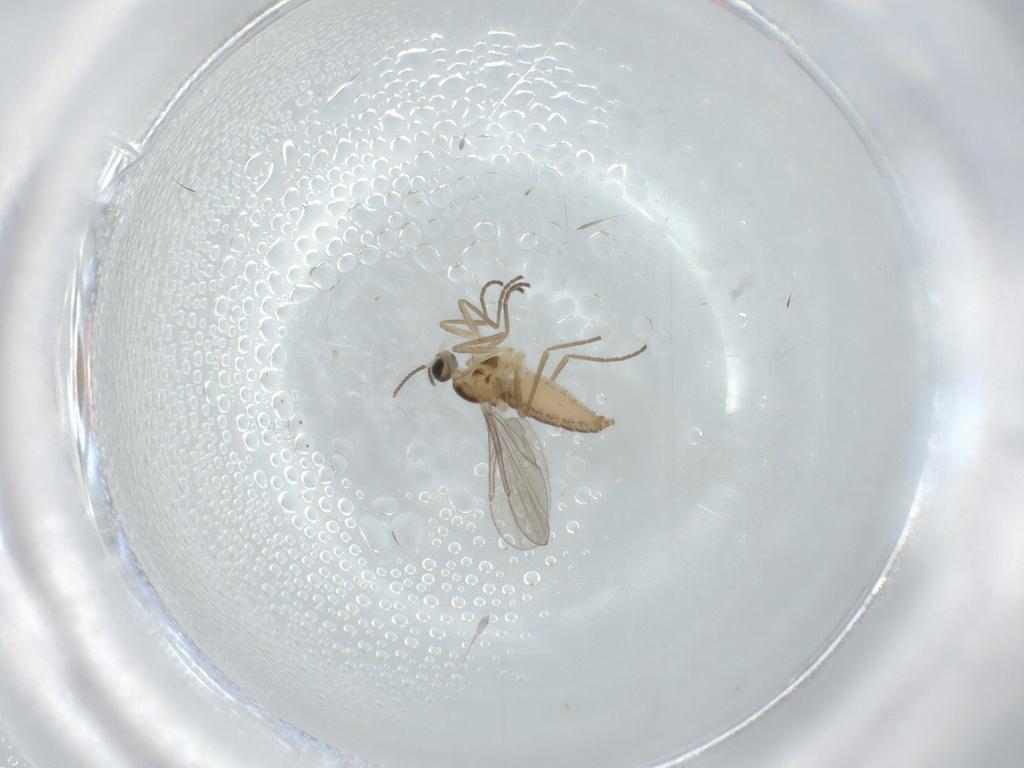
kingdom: Animalia
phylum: Arthropoda
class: Insecta
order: Diptera
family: Cecidomyiidae
